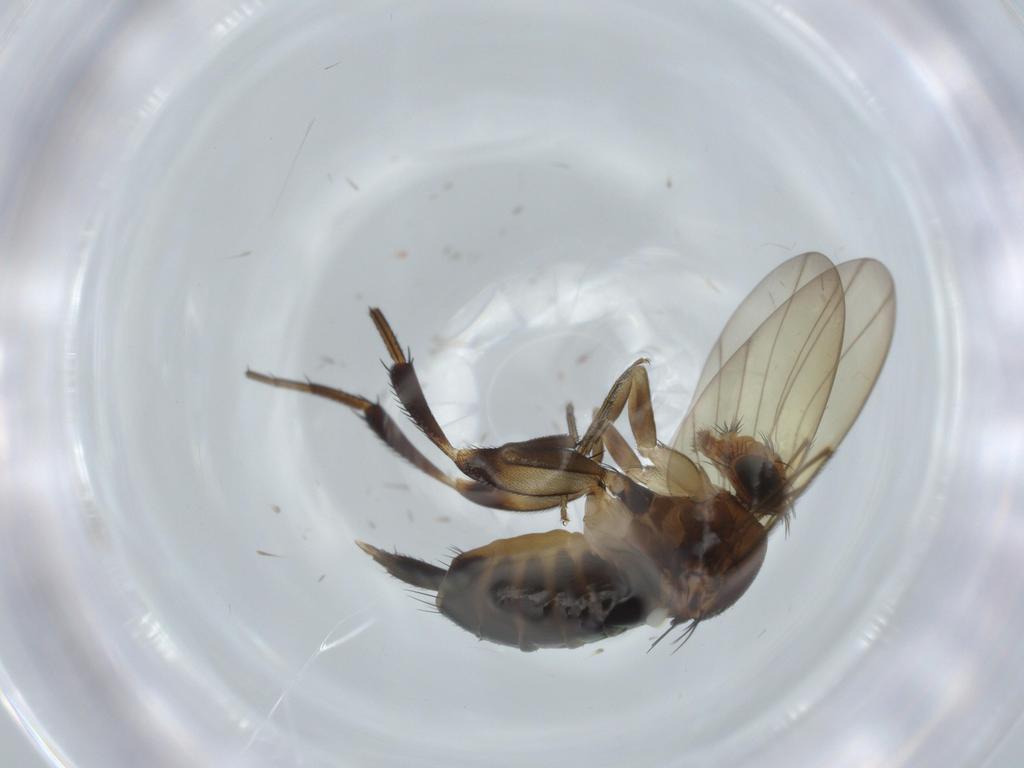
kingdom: Animalia
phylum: Arthropoda
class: Insecta
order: Diptera
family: Phoridae
